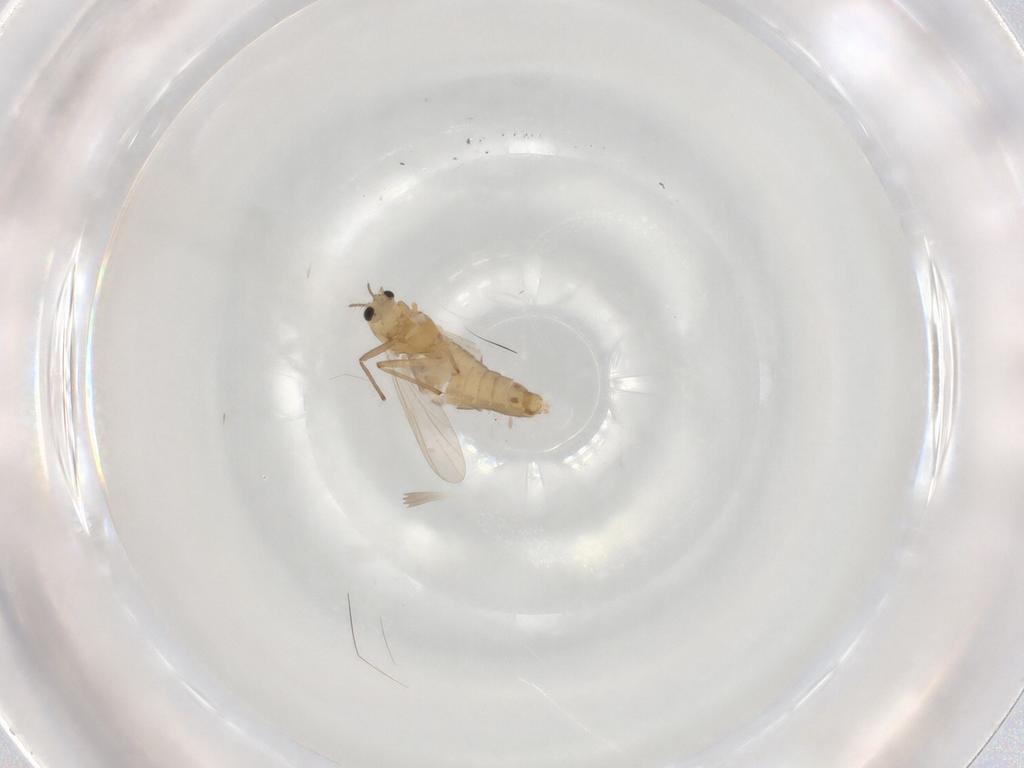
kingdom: Animalia
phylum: Arthropoda
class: Insecta
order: Diptera
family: Chironomidae
